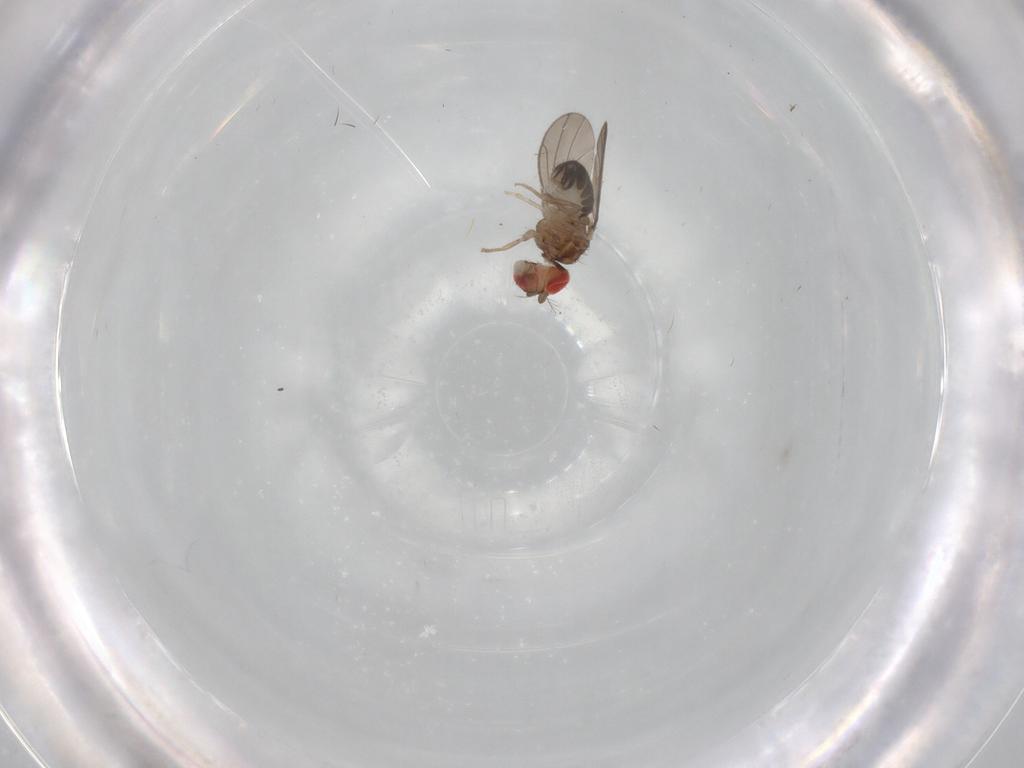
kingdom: Animalia
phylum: Arthropoda
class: Insecta
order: Diptera
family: Drosophilidae
